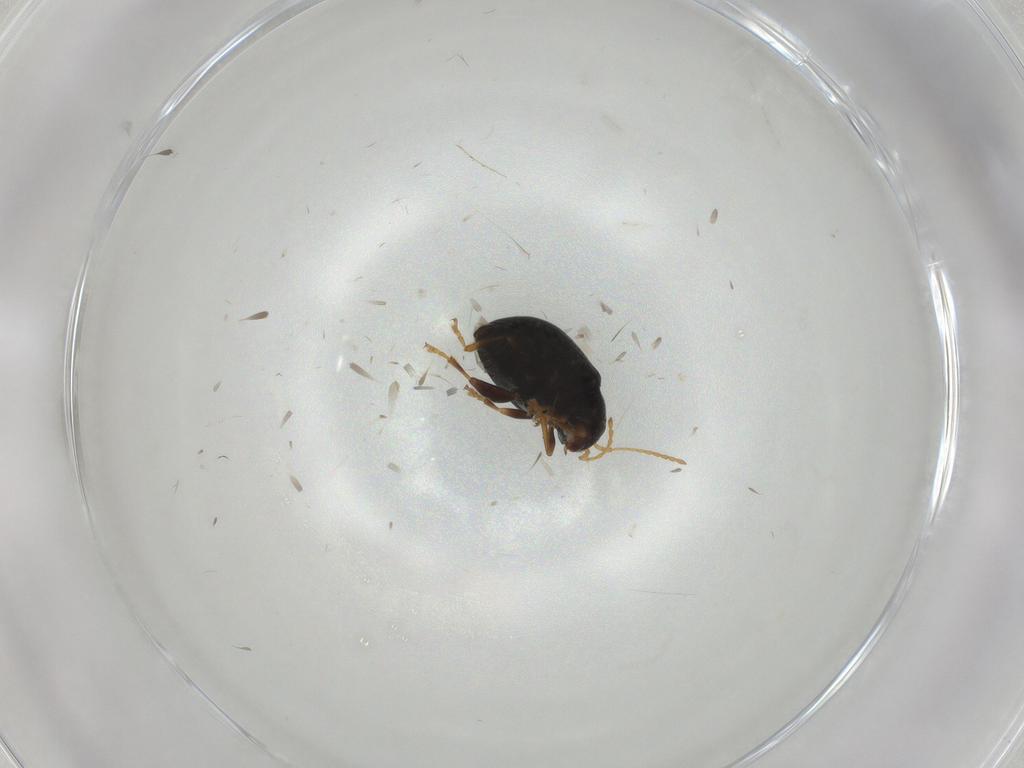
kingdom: Animalia
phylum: Arthropoda
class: Insecta
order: Coleoptera
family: Chrysomelidae
